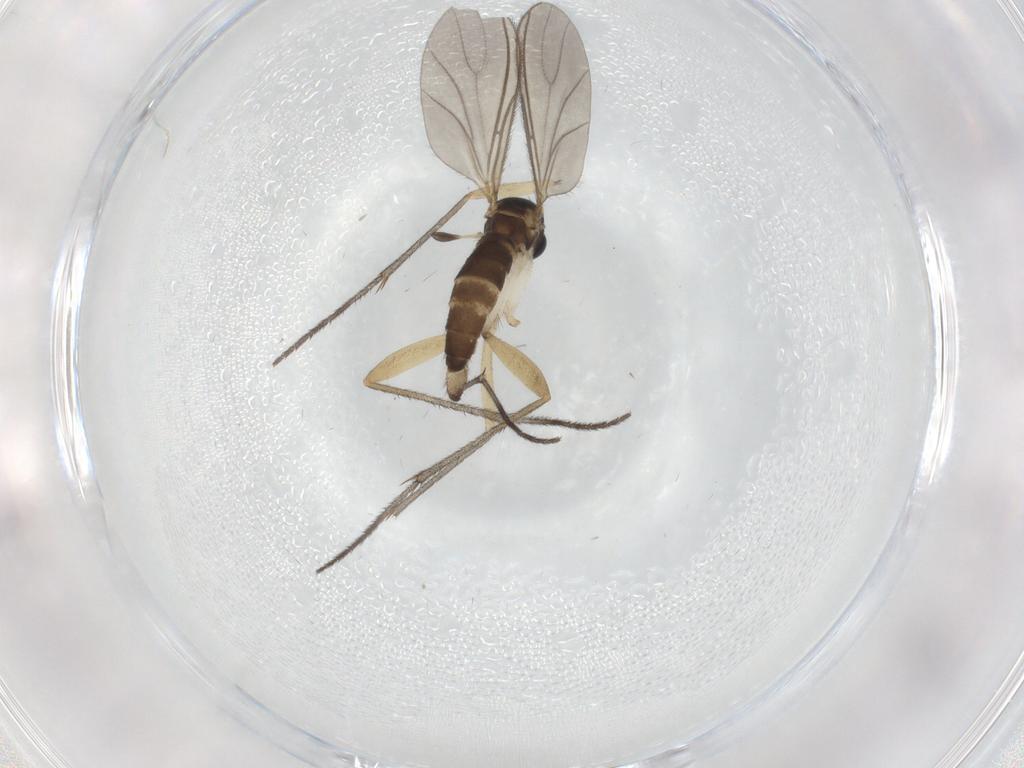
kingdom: Animalia
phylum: Arthropoda
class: Insecta
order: Diptera
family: Sciaridae
